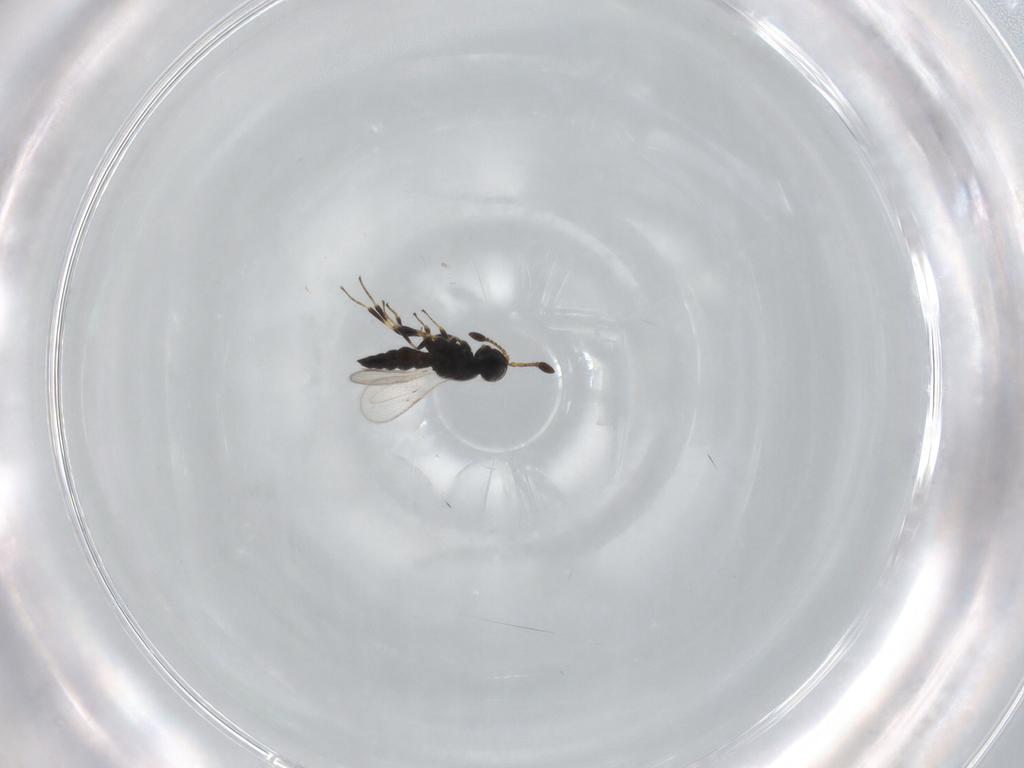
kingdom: Animalia
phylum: Arthropoda
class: Insecta
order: Hymenoptera
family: Scelionidae
